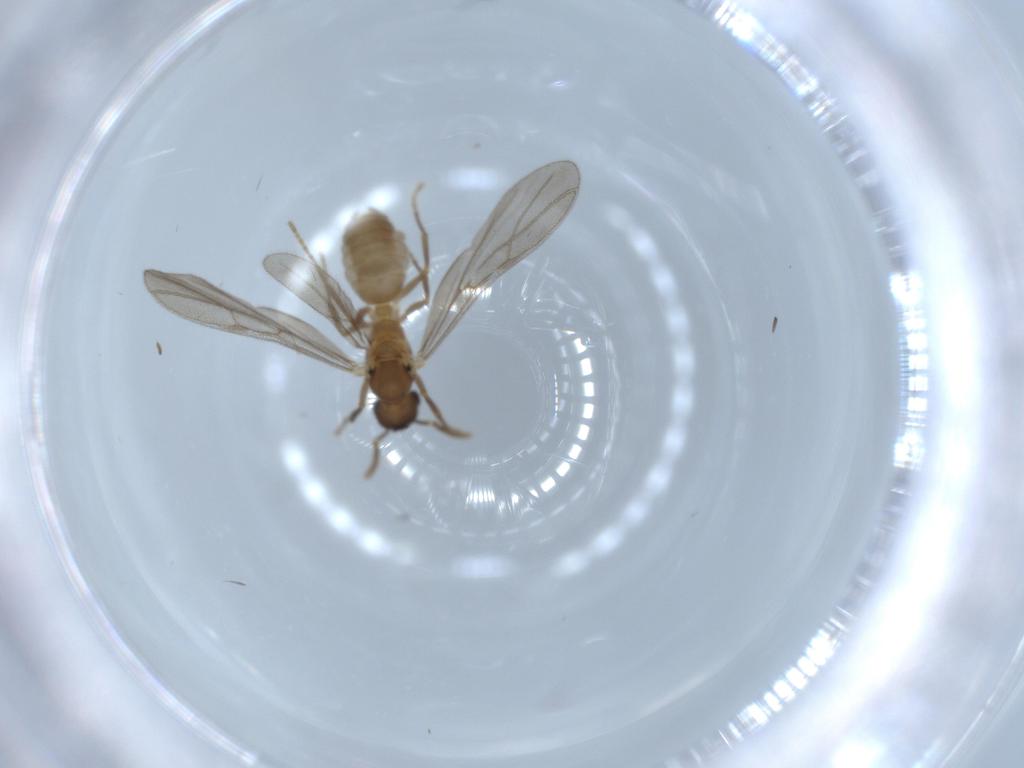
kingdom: Animalia
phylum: Arthropoda
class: Insecta
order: Hymenoptera
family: Formicidae
